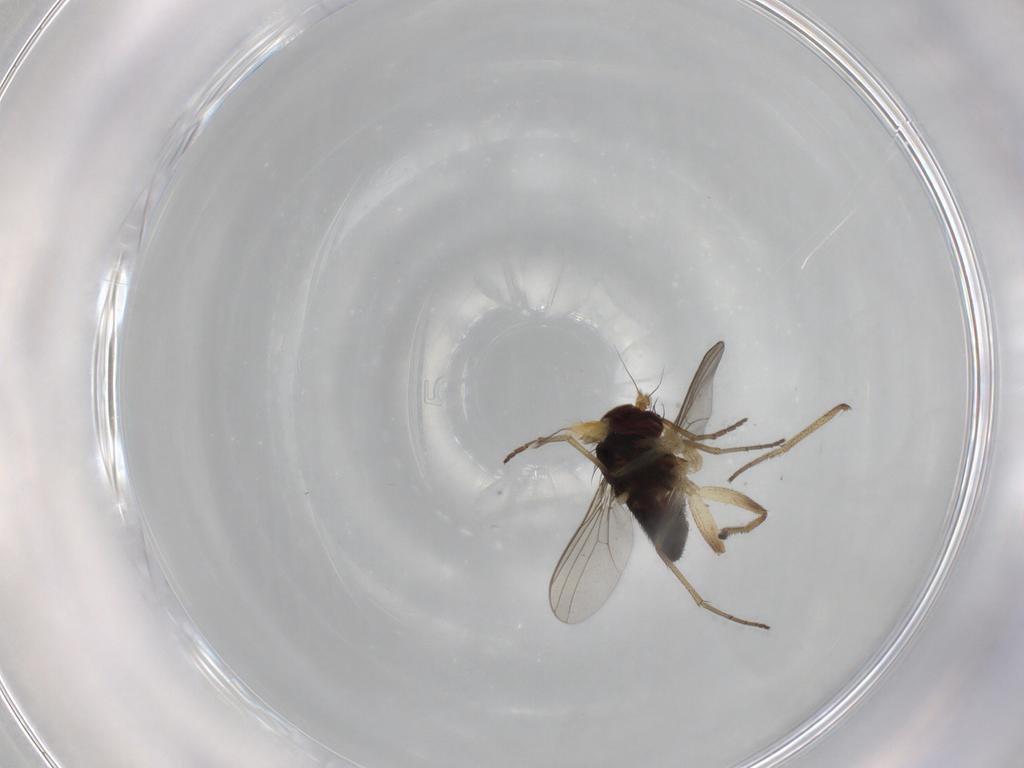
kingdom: Animalia
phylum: Arthropoda
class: Insecta
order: Diptera
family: Dolichopodidae
